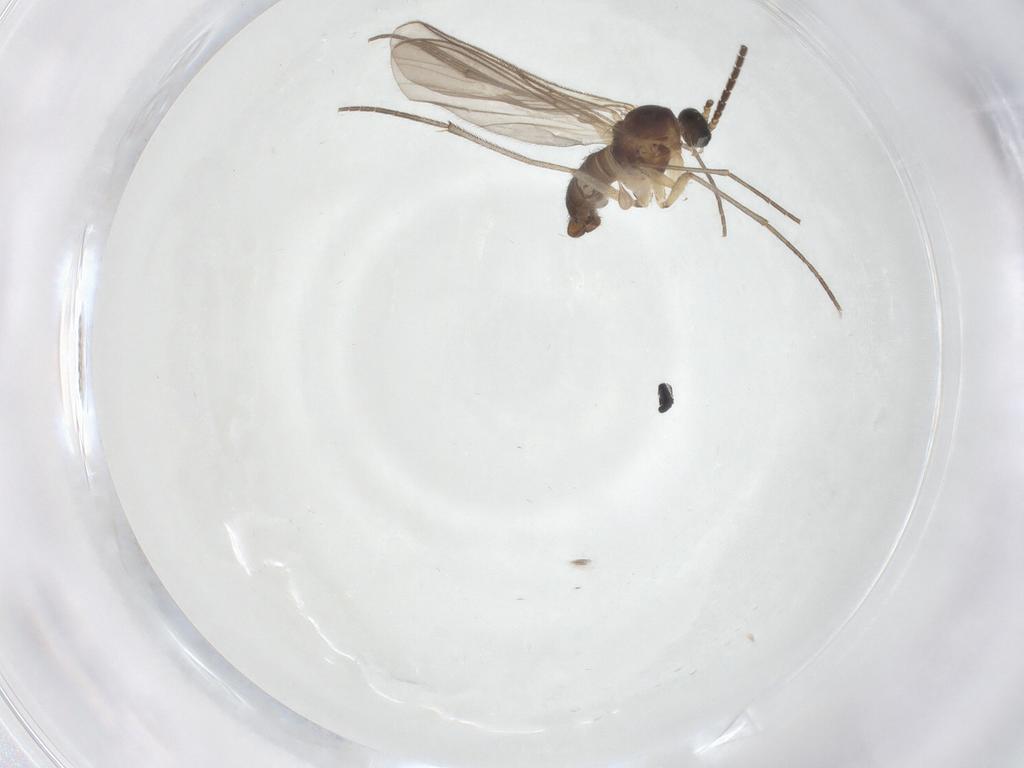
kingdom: Animalia
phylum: Arthropoda
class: Insecta
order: Diptera
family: Sciaridae
